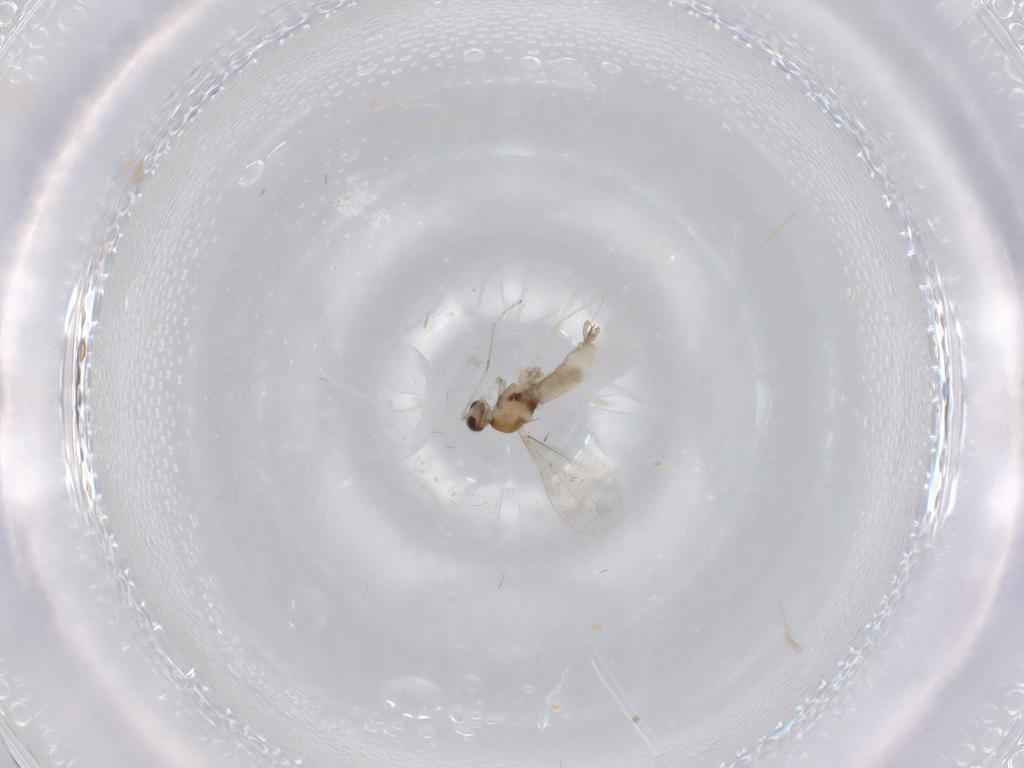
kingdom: Animalia
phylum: Arthropoda
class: Insecta
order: Diptera
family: Cecidomyiidae
